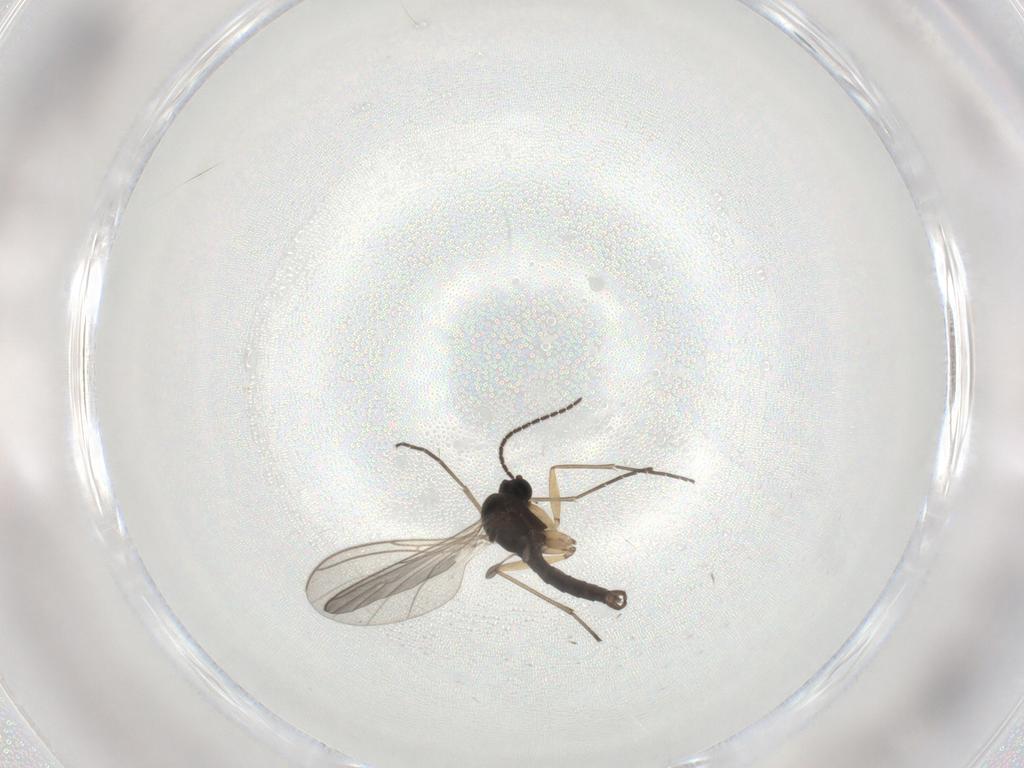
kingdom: Animalia
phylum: Arthropoda
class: Insecta
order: Diptera
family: Sciaridae
